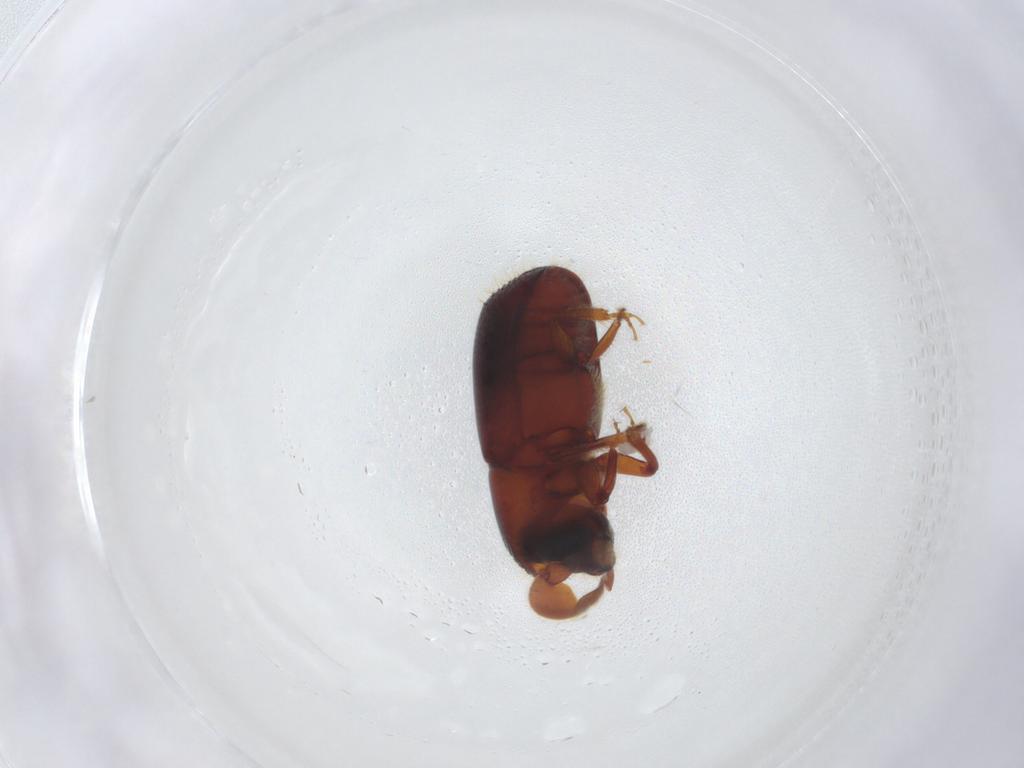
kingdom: Animalia
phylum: Arthropoda
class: Insecta
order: Coleoptera
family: Curculionidae
